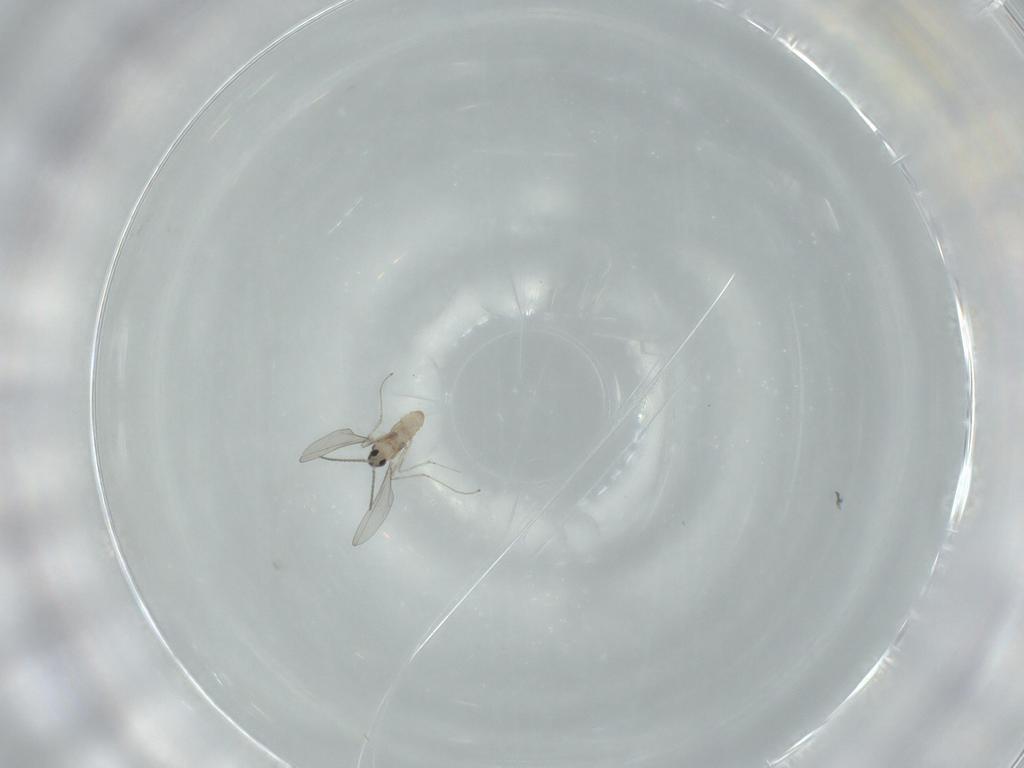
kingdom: Animalia
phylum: Arthropoda
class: Insecta
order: Diptera
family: Cecidomyiidae
